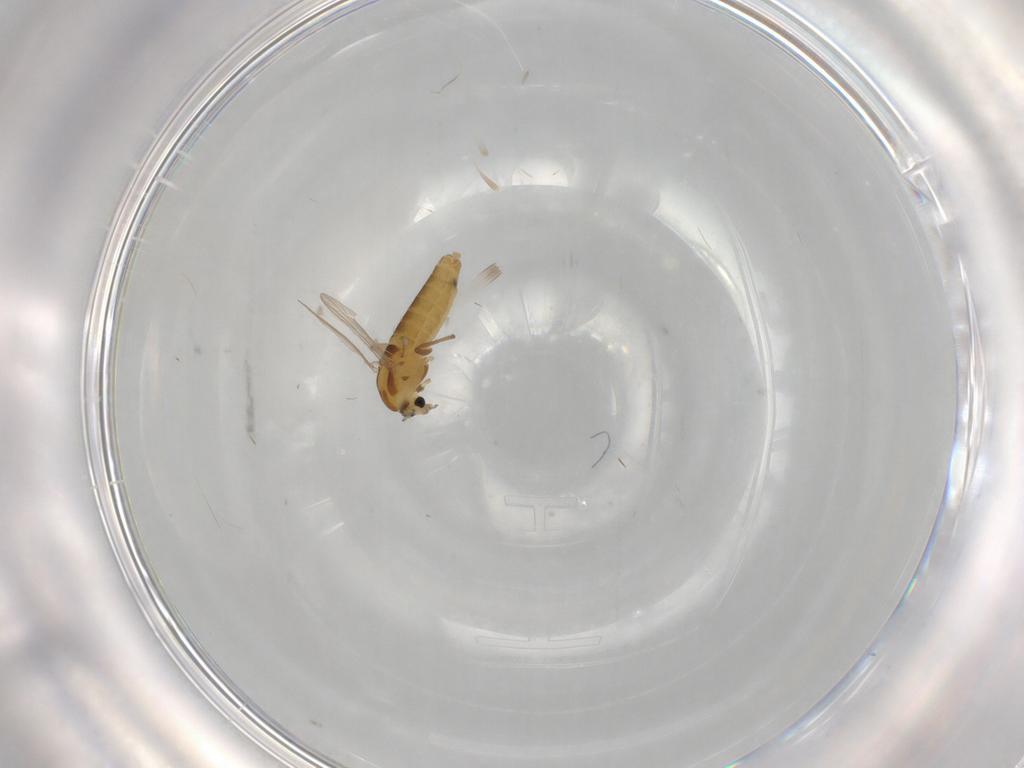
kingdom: Animalia
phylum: Arthropoda
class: Insecta
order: Diptera
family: Chironomidae
